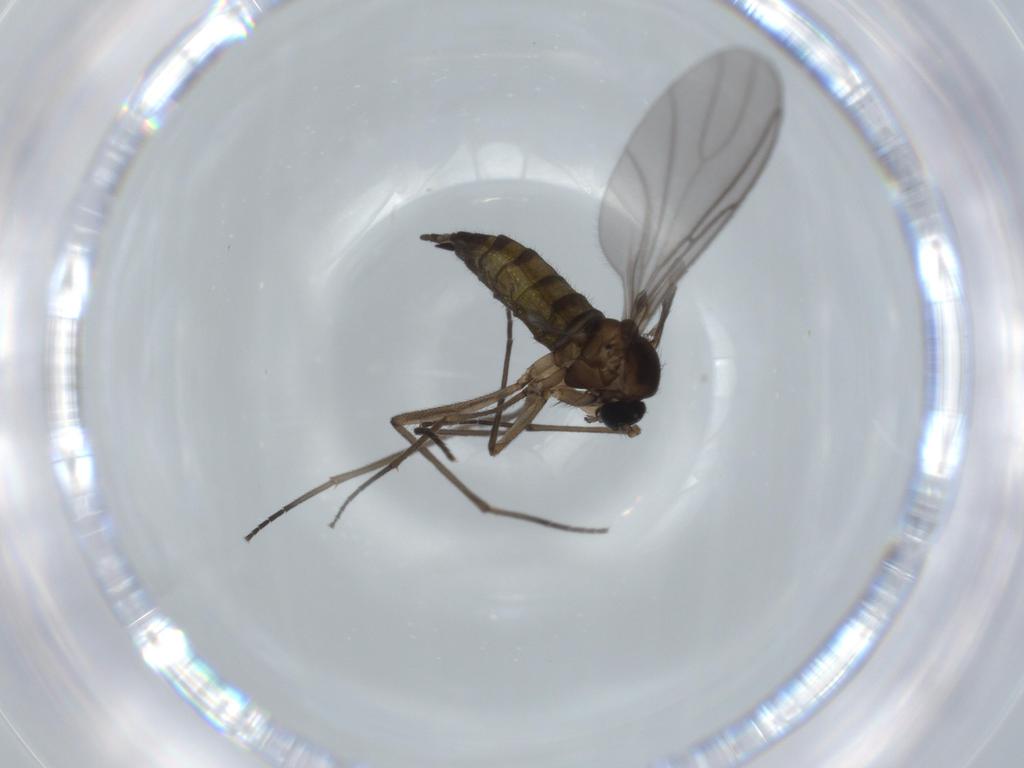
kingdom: Animalia
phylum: Arthropoda
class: Insecta
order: Diptera
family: Sciaridae
